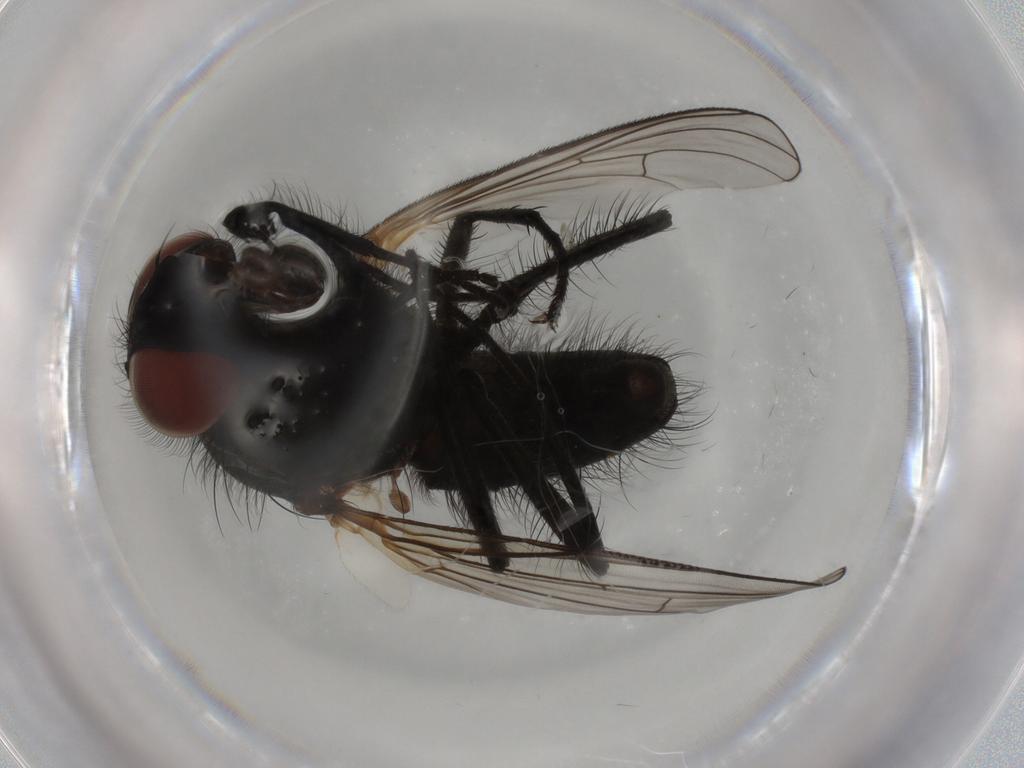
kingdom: Animalia
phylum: Arthropoda
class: Insecta
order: Diptera
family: Anthomyiidae
